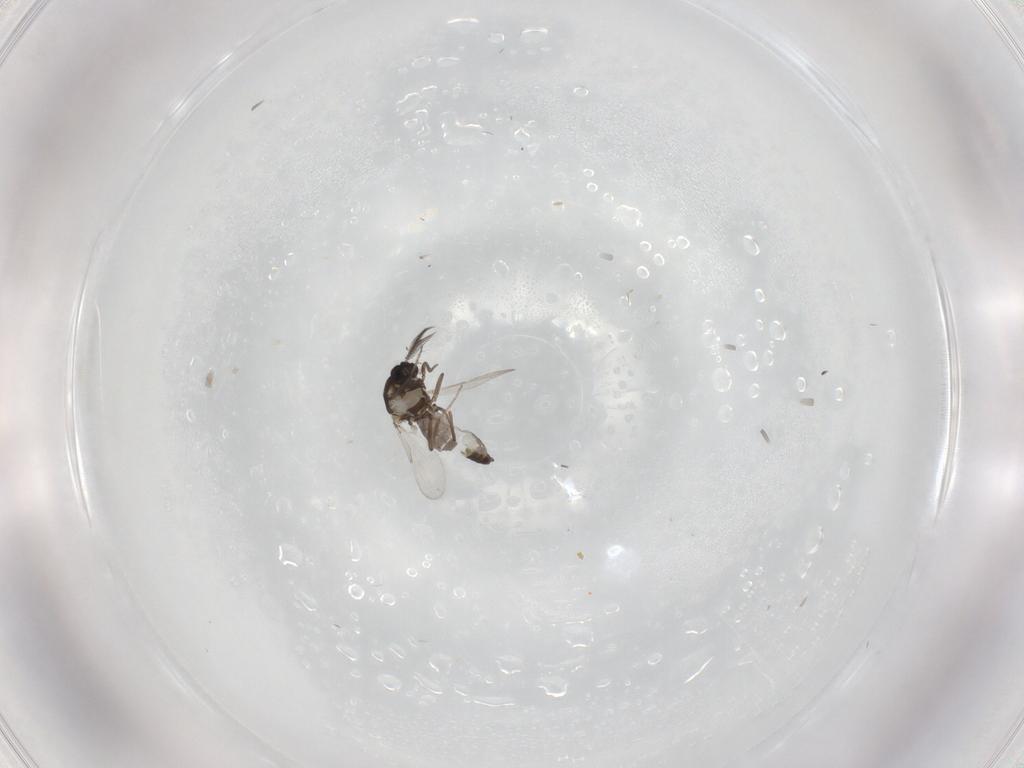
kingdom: Animalia
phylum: Arthropoda
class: Insecta
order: Diptera
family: Ceratopogonidae
